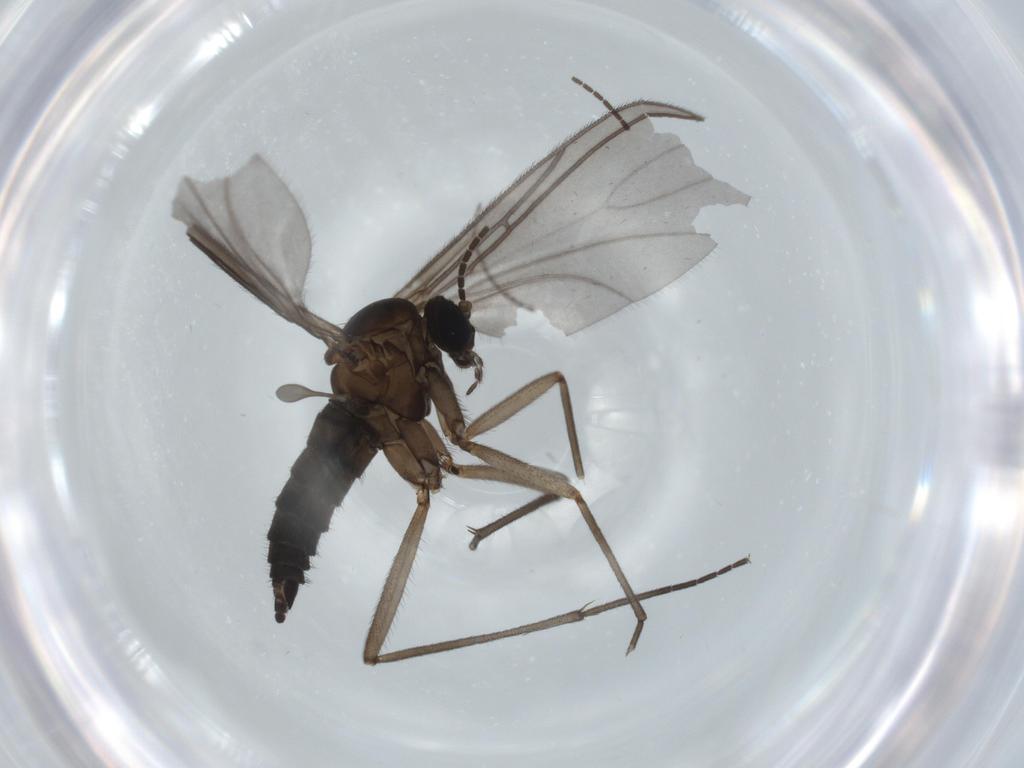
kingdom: Animalia
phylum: Arthropoda
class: Insecta
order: Diptera
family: Sciaridae
